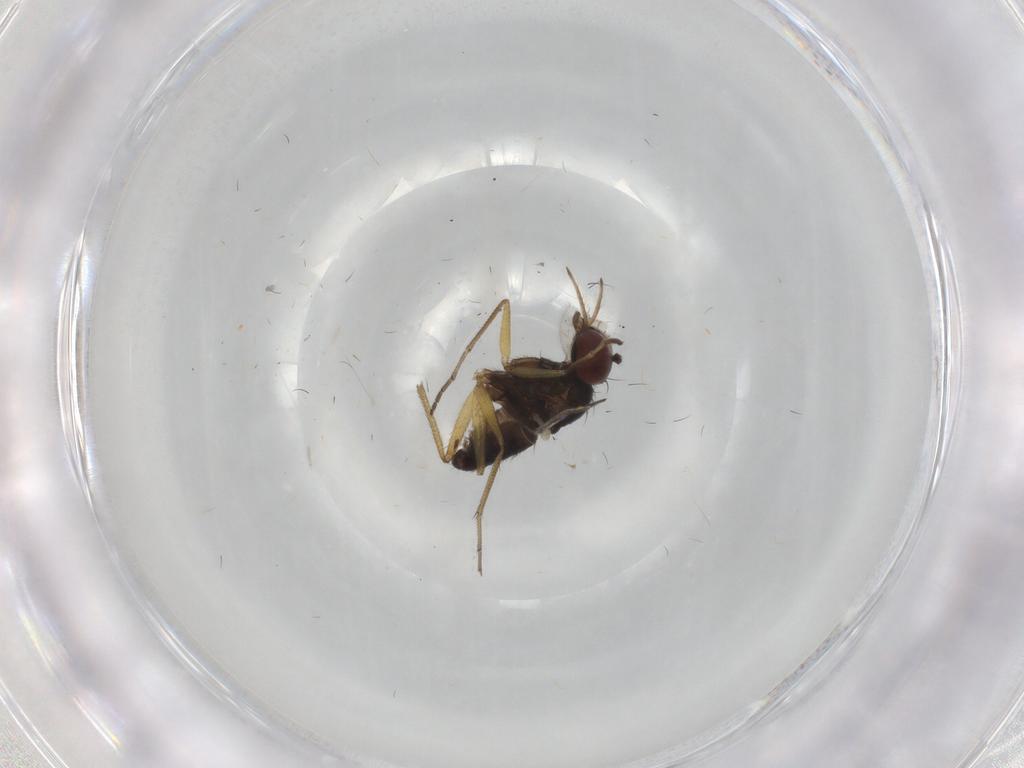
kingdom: Animalia
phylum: Arthropoda
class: Insecta
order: Diptera
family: Dolichopodidae
